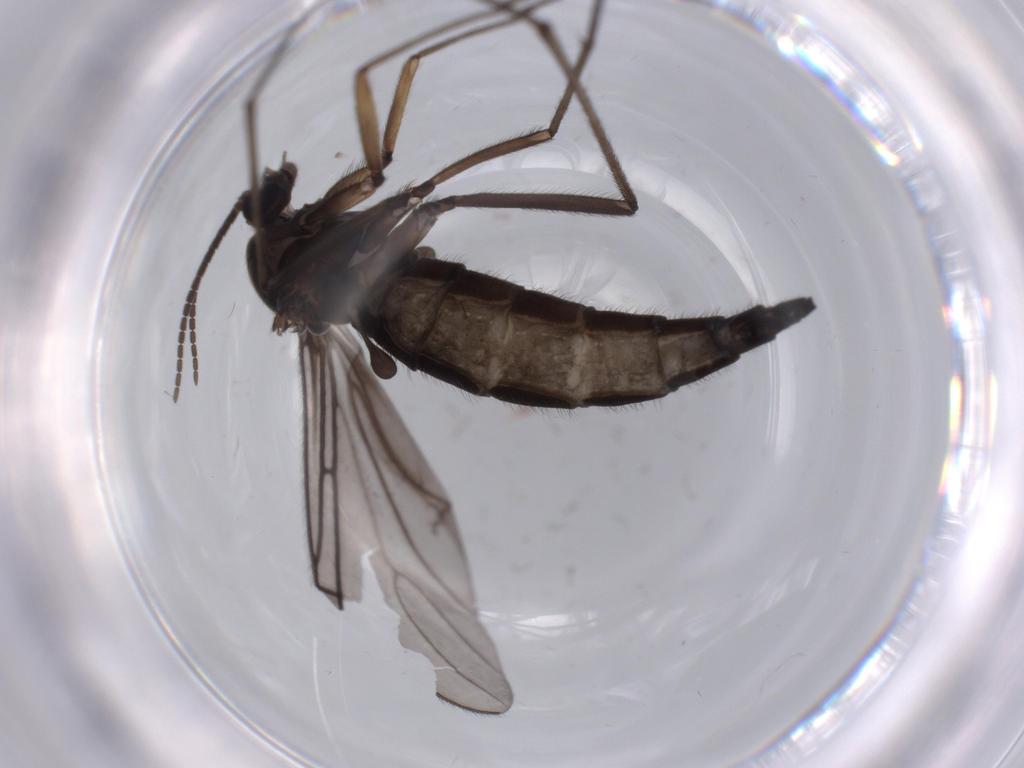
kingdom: Animalia
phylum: Arthropoda
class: Insecta
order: Diptera
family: Sciaridae
